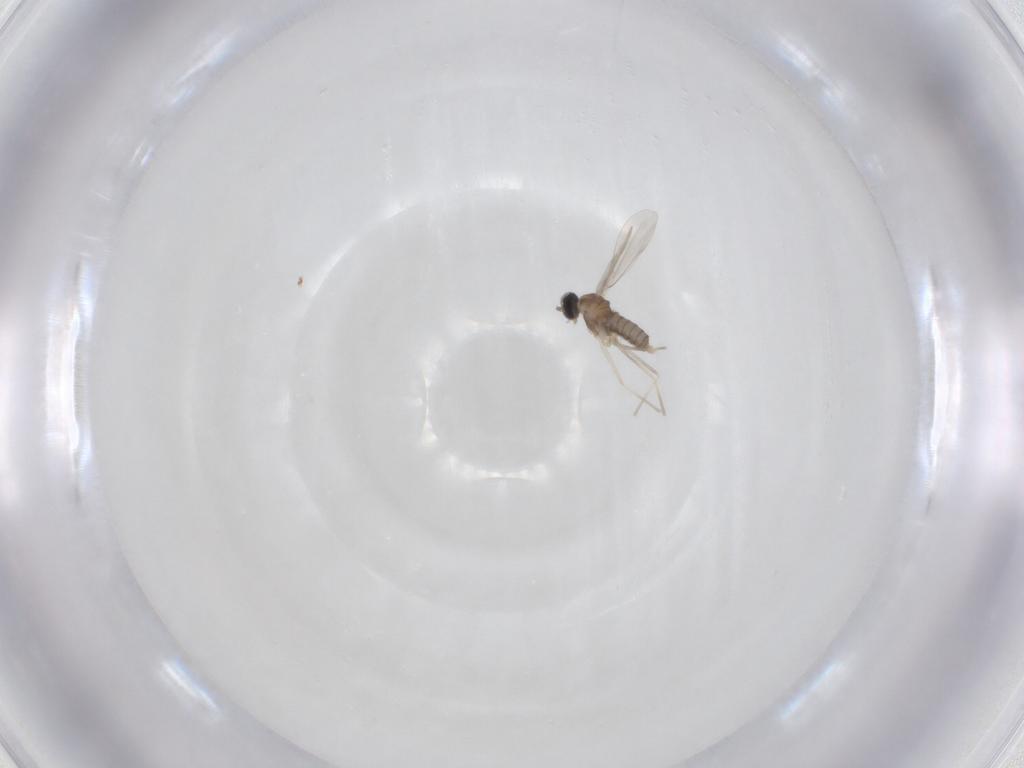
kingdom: Animalia
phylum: Arthropoda
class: Insecta
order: Diptera
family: Cecidomyiidae
